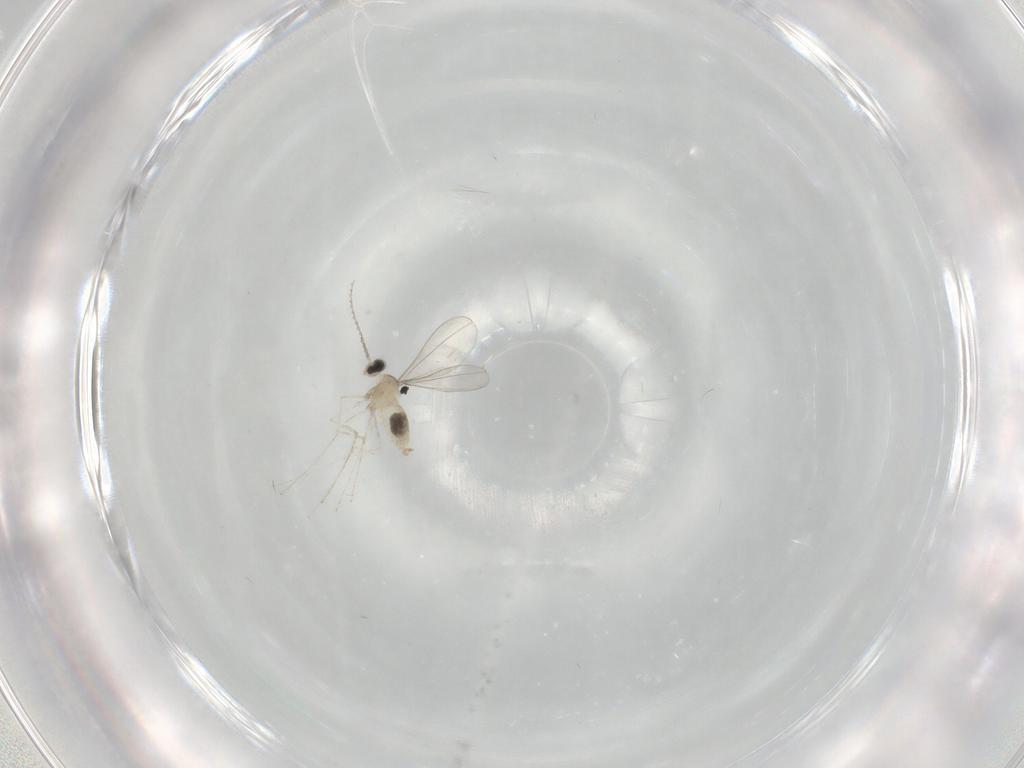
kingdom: Animalia
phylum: Arthropoda
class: Insecta
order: Diptera
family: Cecidomyiidae
